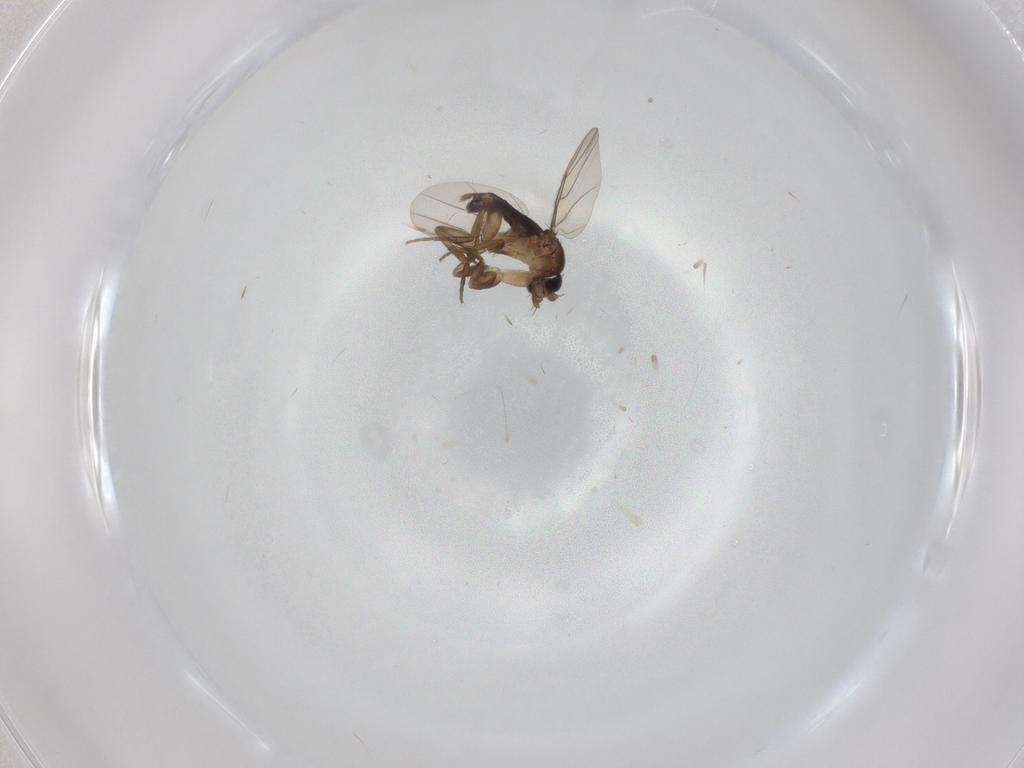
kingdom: Animalia
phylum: Arthropoda
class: Insecta
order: Diptera
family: Phoridae
